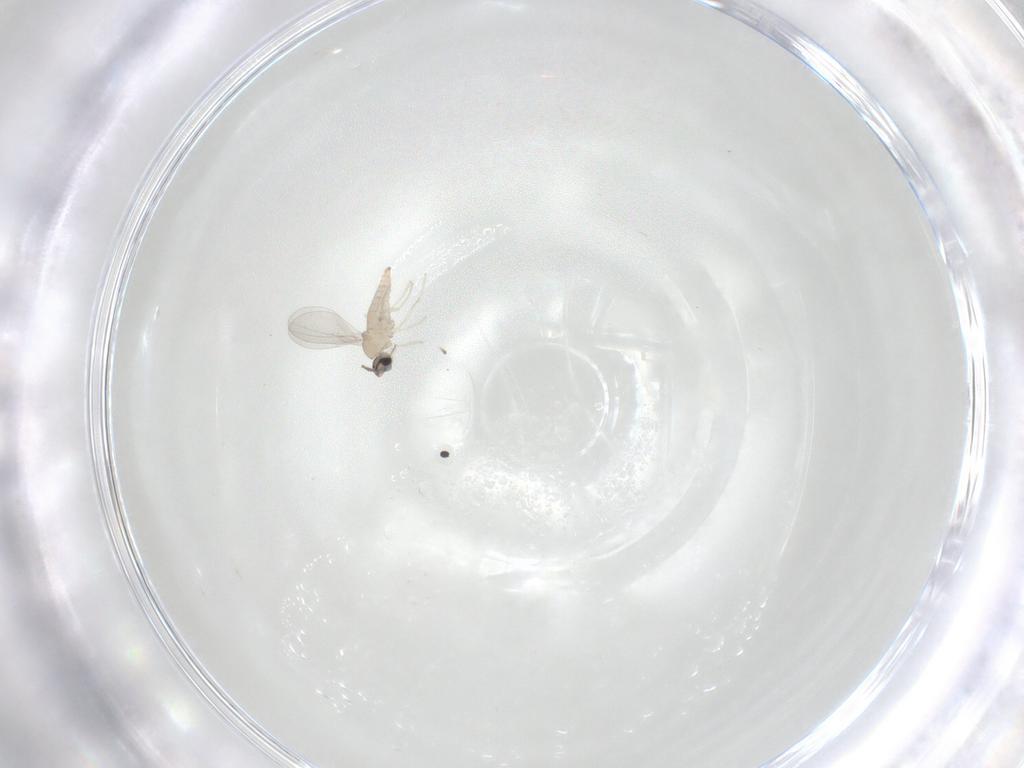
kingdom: Animalia
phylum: Arthropoda
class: Insecta
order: Diptera
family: Cecidomyiidae
